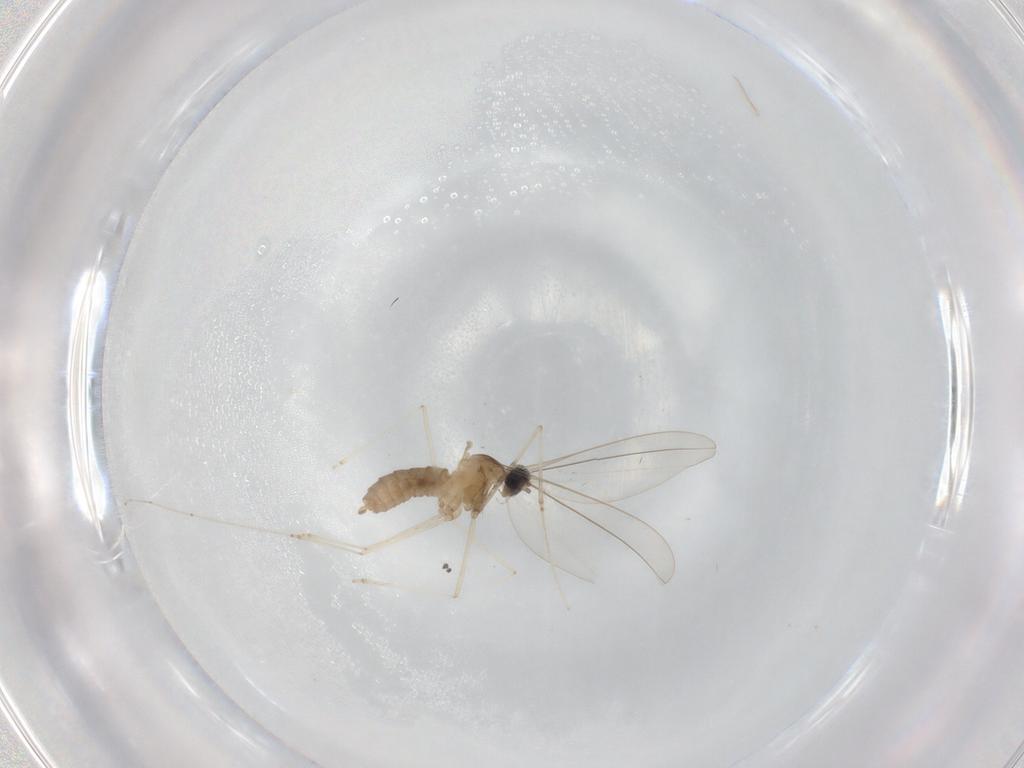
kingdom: Animalia
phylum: Arthropoda
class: Insecta
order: Diptera
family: Cecidomyiidae
